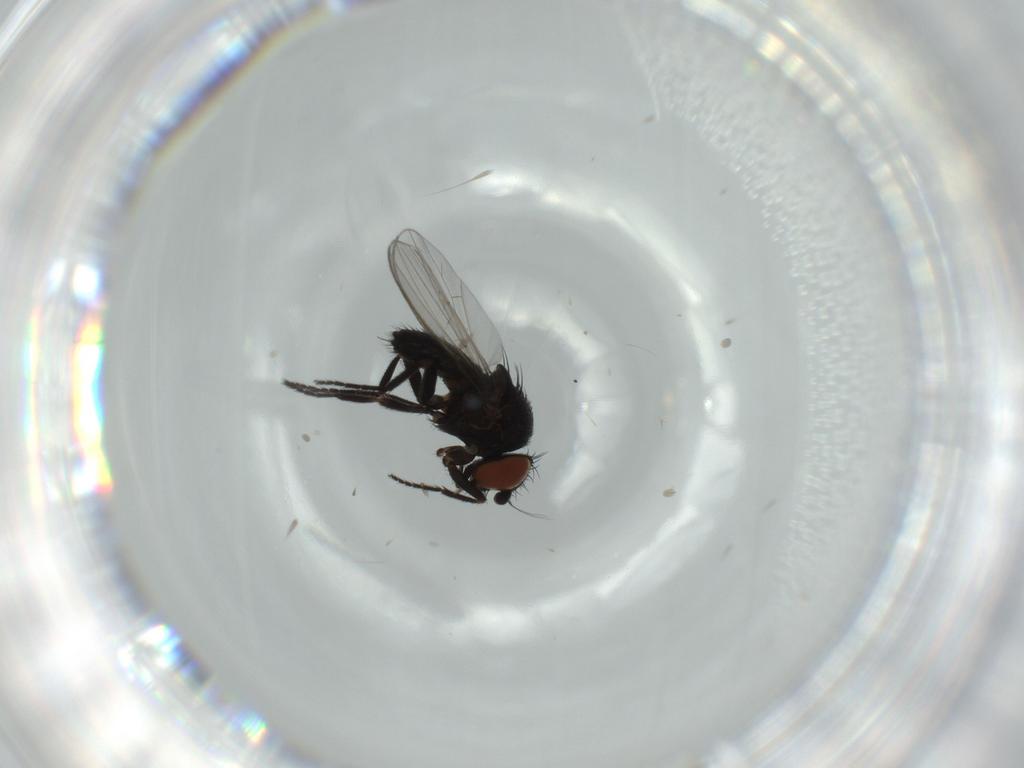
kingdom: Animalia
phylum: Arthropoda
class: Insecta
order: Diptera
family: Milichiidae
